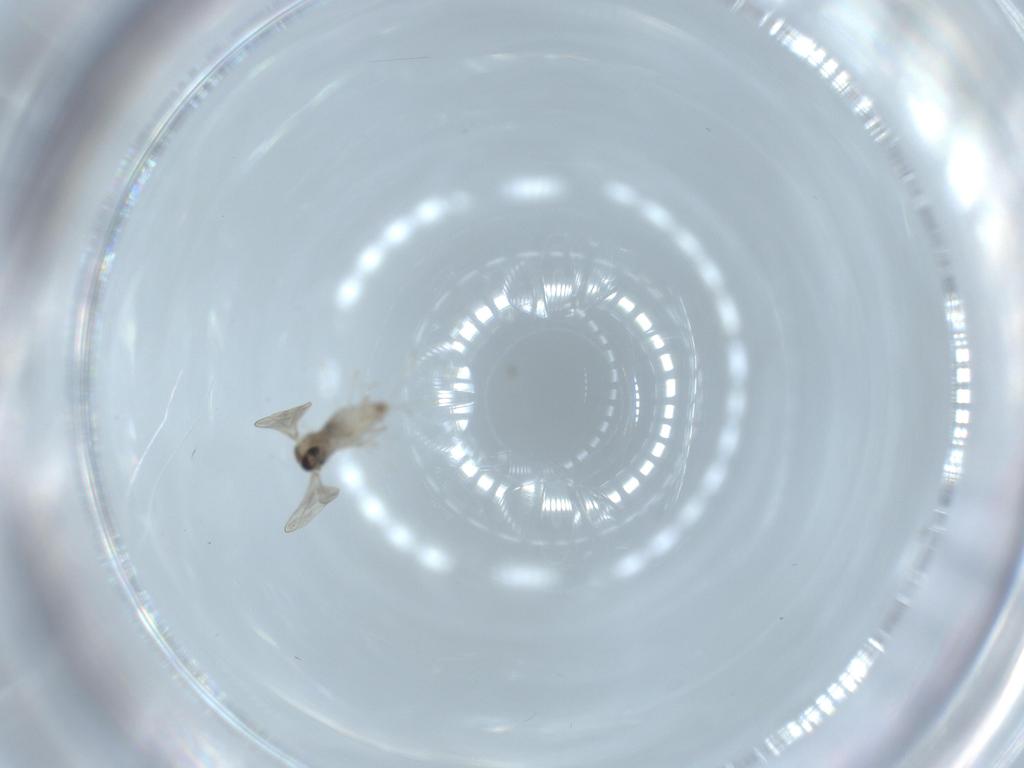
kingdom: Animalia
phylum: Arthropoda
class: Insecta
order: Diptera
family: Cecidomyiidae
